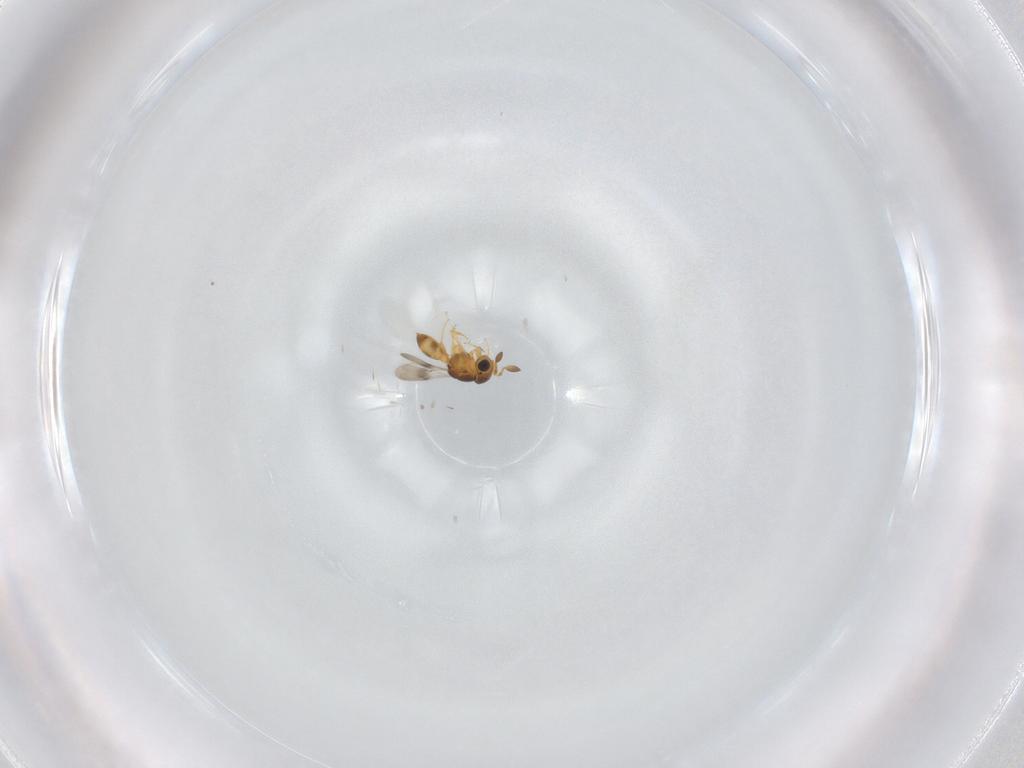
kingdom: Animalia
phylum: Arthropoda
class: Insecta
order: Hymenoptera
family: Scelionidae
